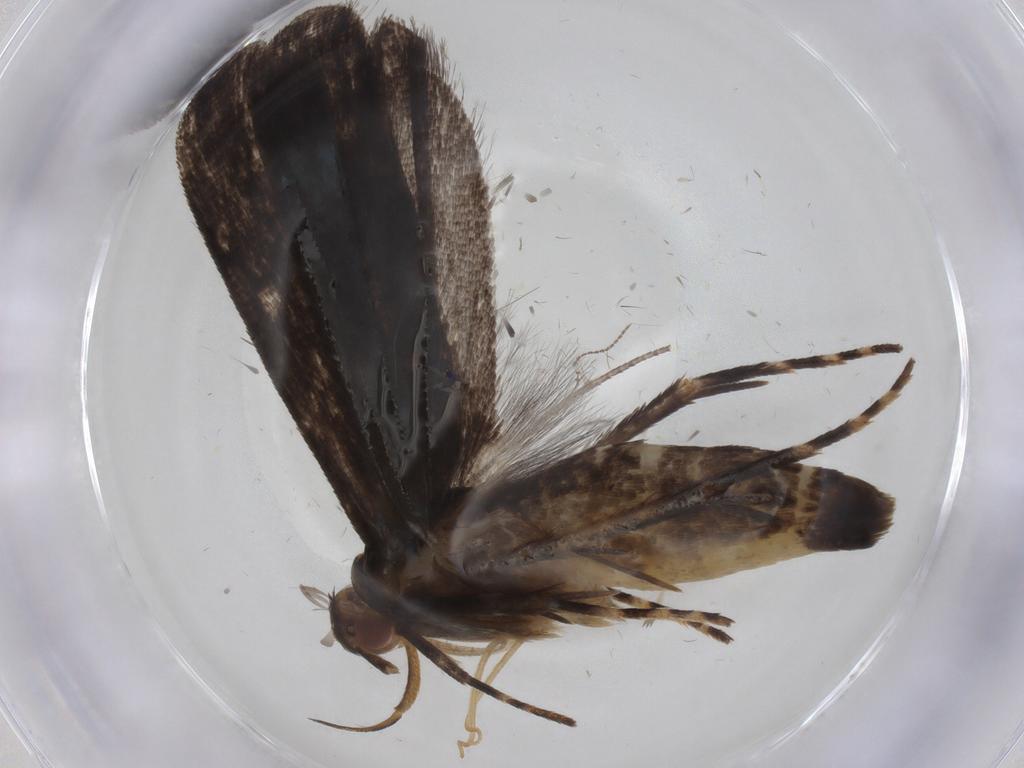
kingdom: Animalia
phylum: Arthropoda
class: Insecta
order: Lepidoptera
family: Gelechiidae
